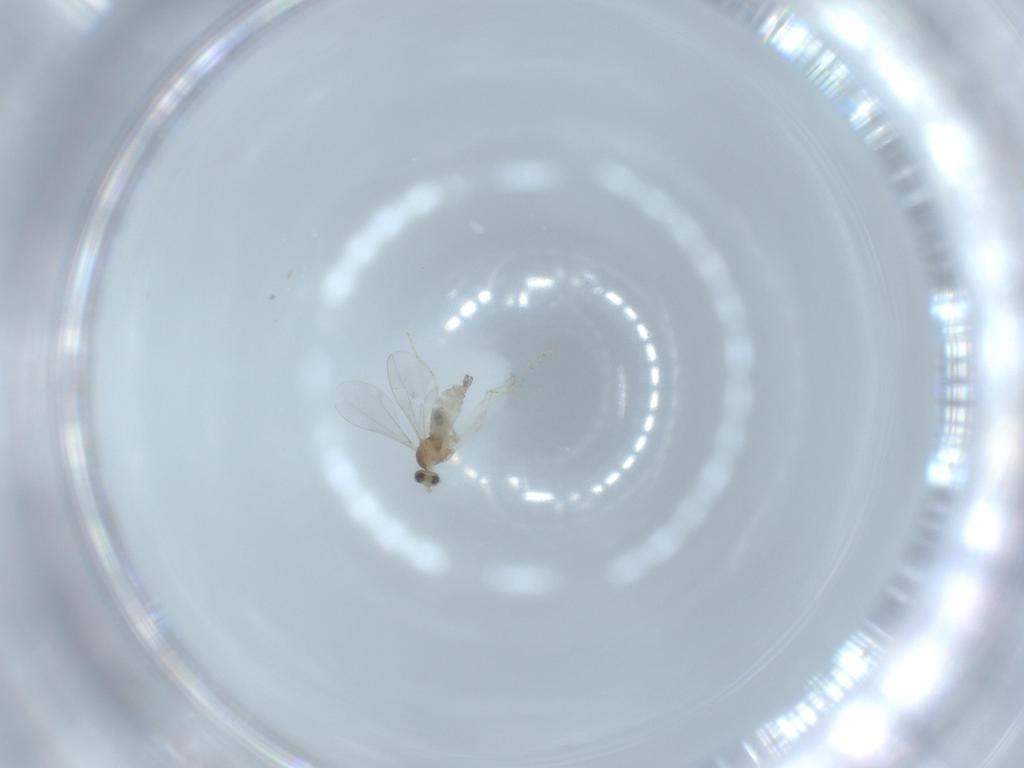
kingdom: Animalia
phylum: Arthropoda
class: Insecta
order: Diptera
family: Cecidomyiidae
